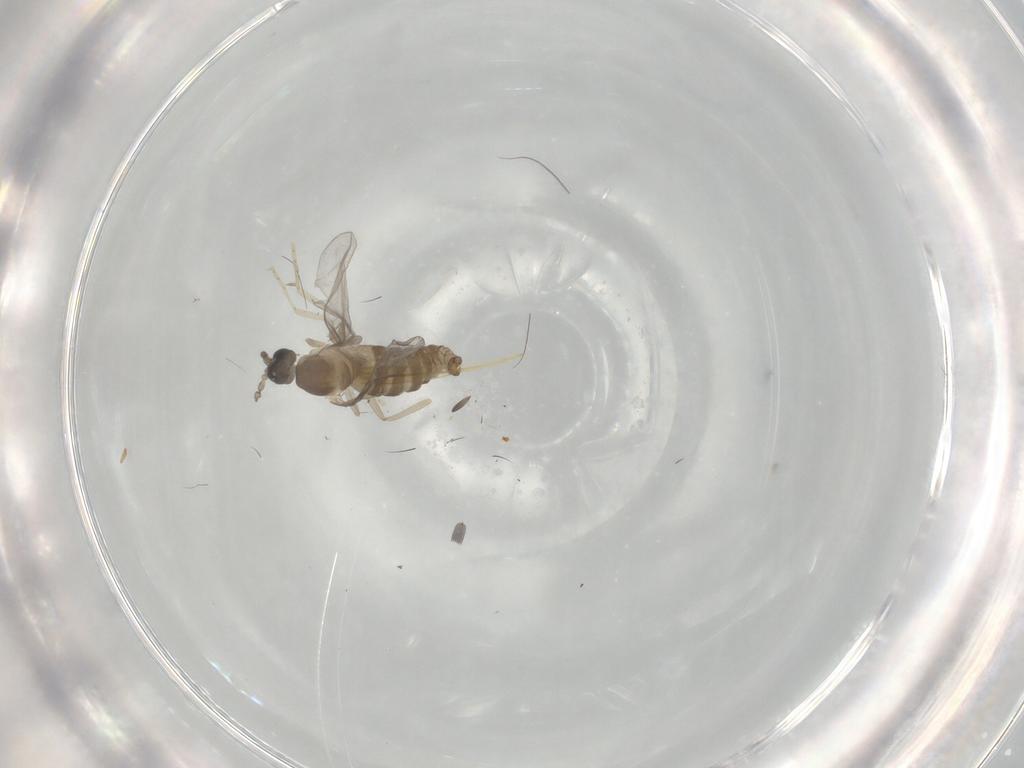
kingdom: Animalia
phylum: Arthropoda
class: Insecta
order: Diptera
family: Cecidomyiidae
